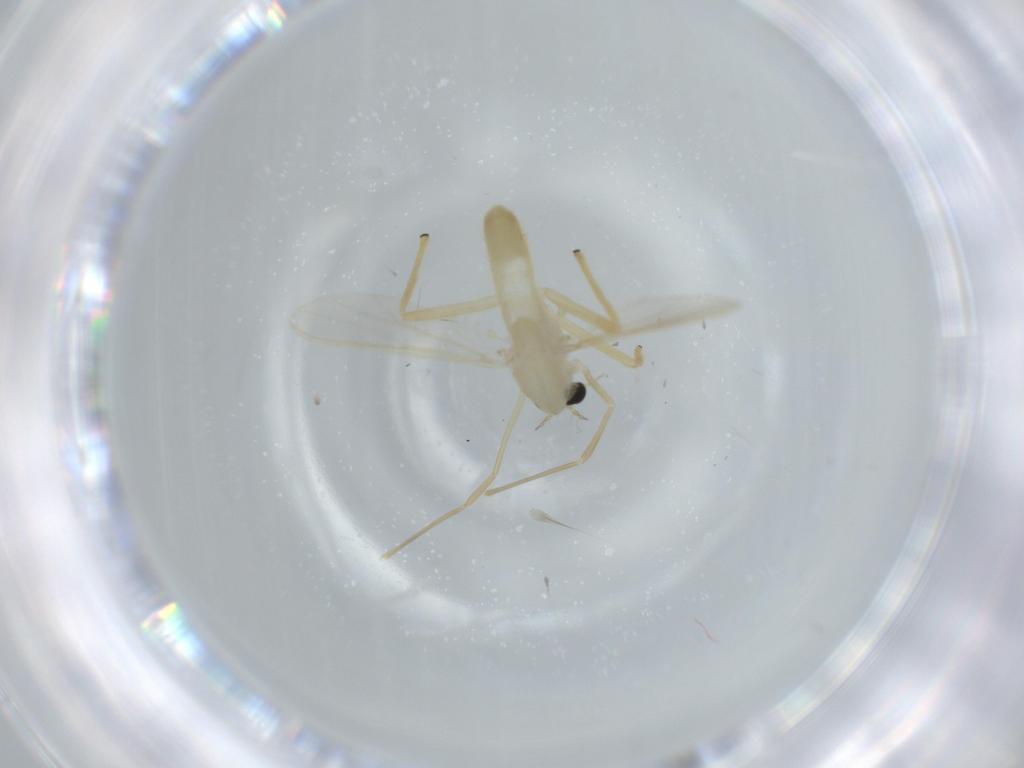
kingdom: Animalia
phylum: Arthropoda
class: Insecta
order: Diptera
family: Chironomidae
